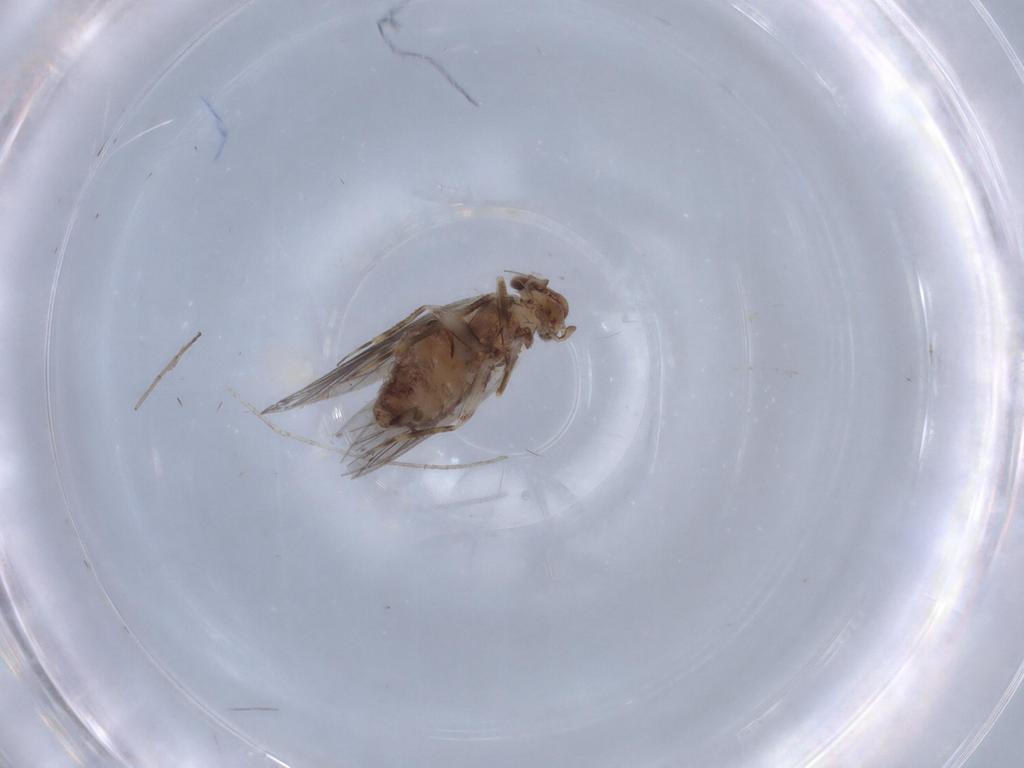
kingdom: Animalia
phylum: Arthropoda
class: Insecta
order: Psocodea
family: Lepidopsocidae
